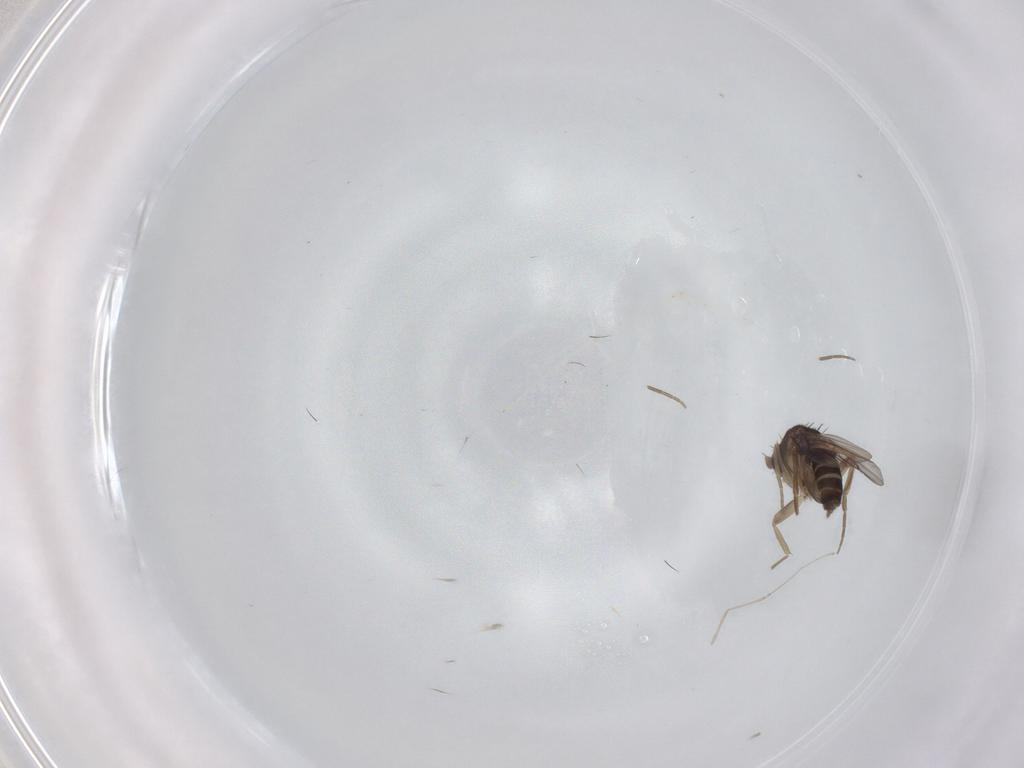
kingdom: Animalia
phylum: Arthropoda
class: Insecta
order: Diptera
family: Phoridae
